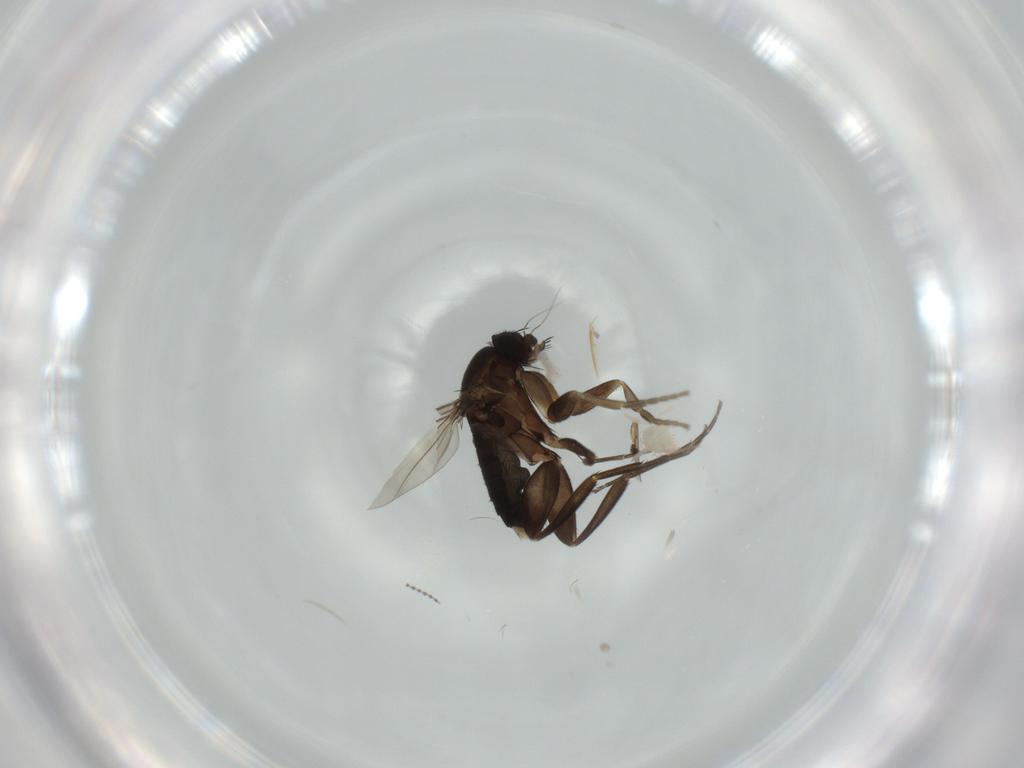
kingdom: Animalia
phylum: Arthropoda
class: Insecta
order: Diptera
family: Phoridae
